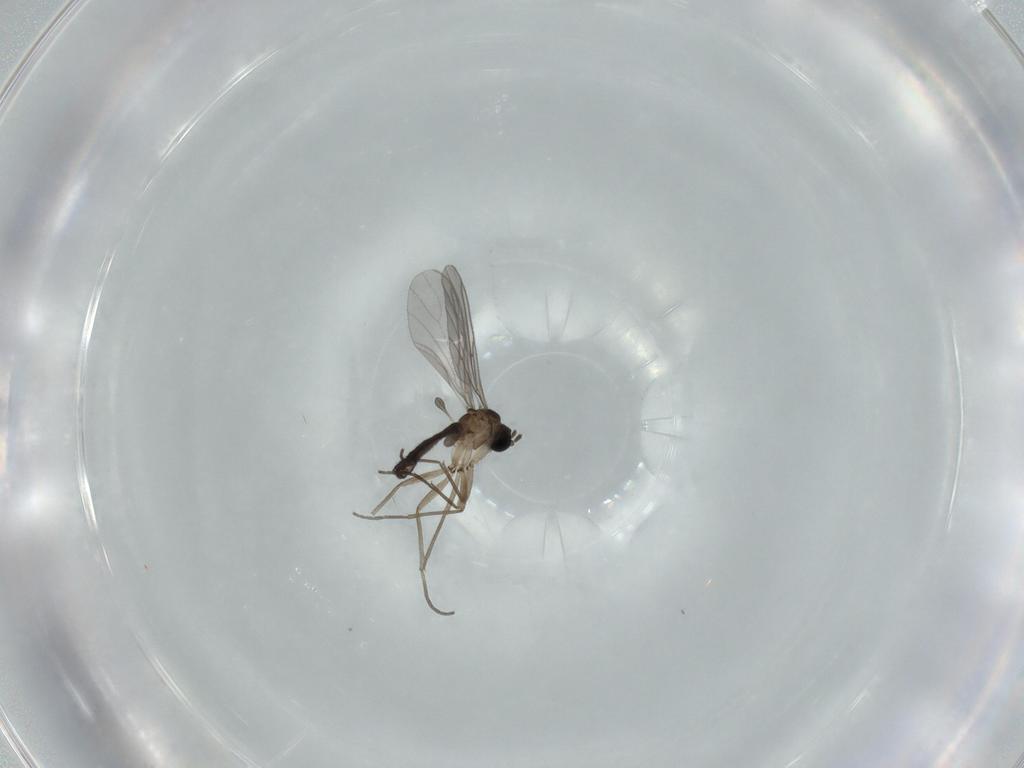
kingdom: Animalia
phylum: Arthropoda
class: Insecta
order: Diptera
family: Sciaridae
